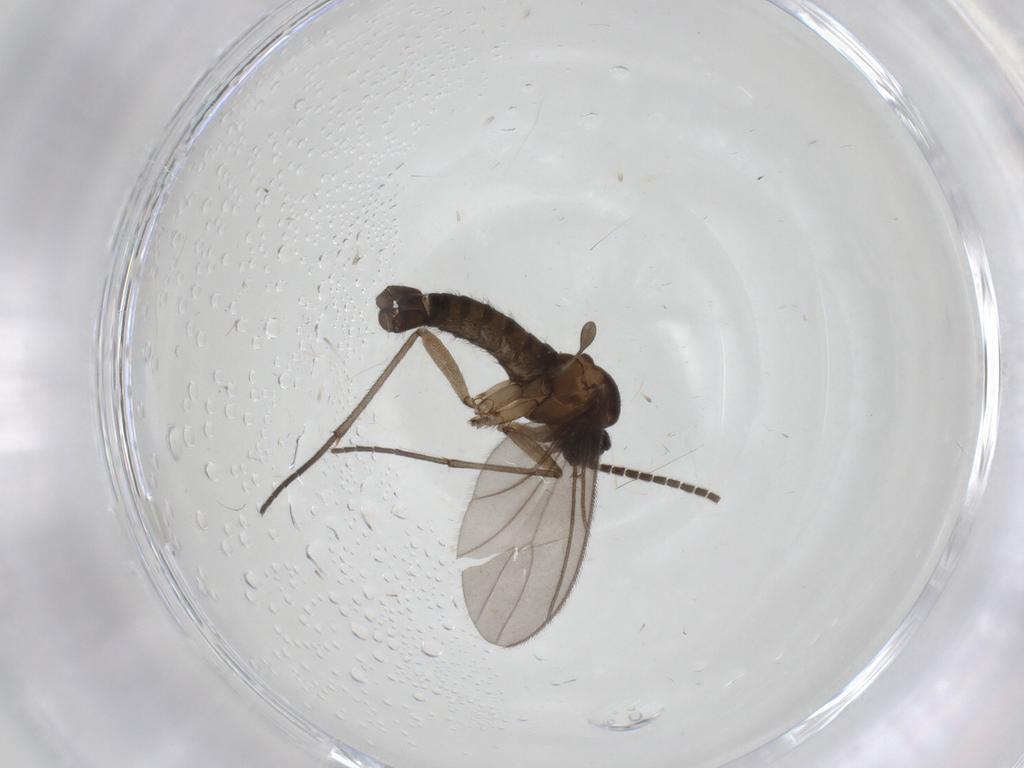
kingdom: Animalia
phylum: Arthropoda
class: Insecta
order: Diptera
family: Sciaridae
